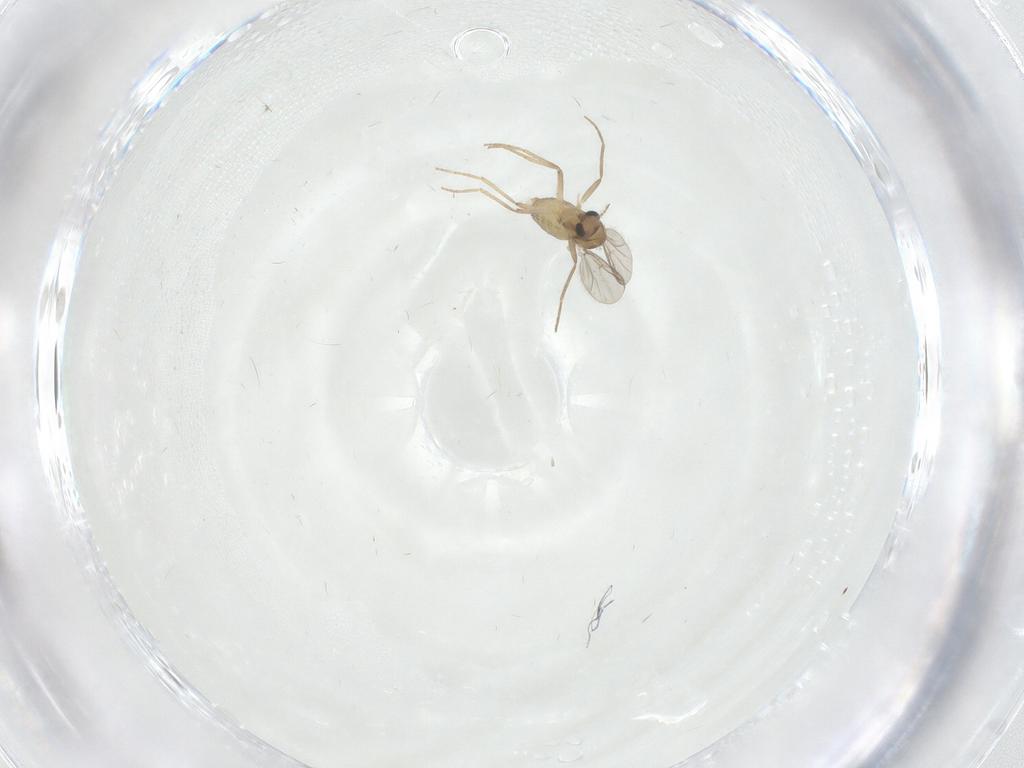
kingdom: Animalia
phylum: Arthropoda
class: Insecta
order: Diptera
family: Chironomidae
